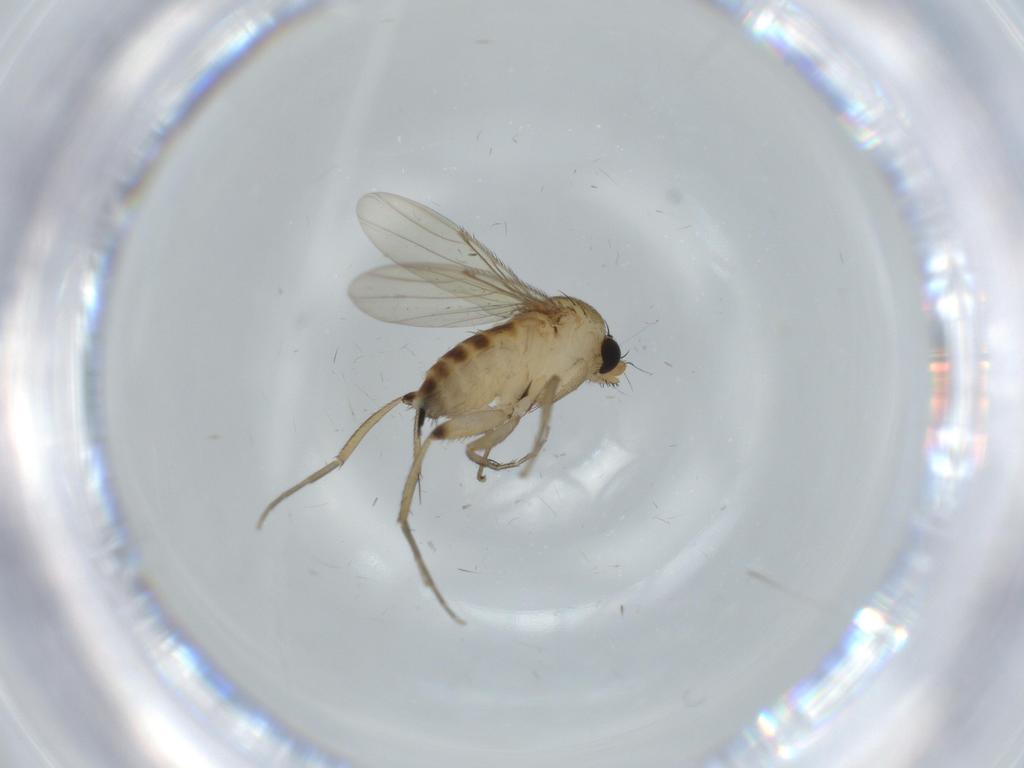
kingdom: Animalia
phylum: Arthropoda
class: Insecta
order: Diptera
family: Phoridae
